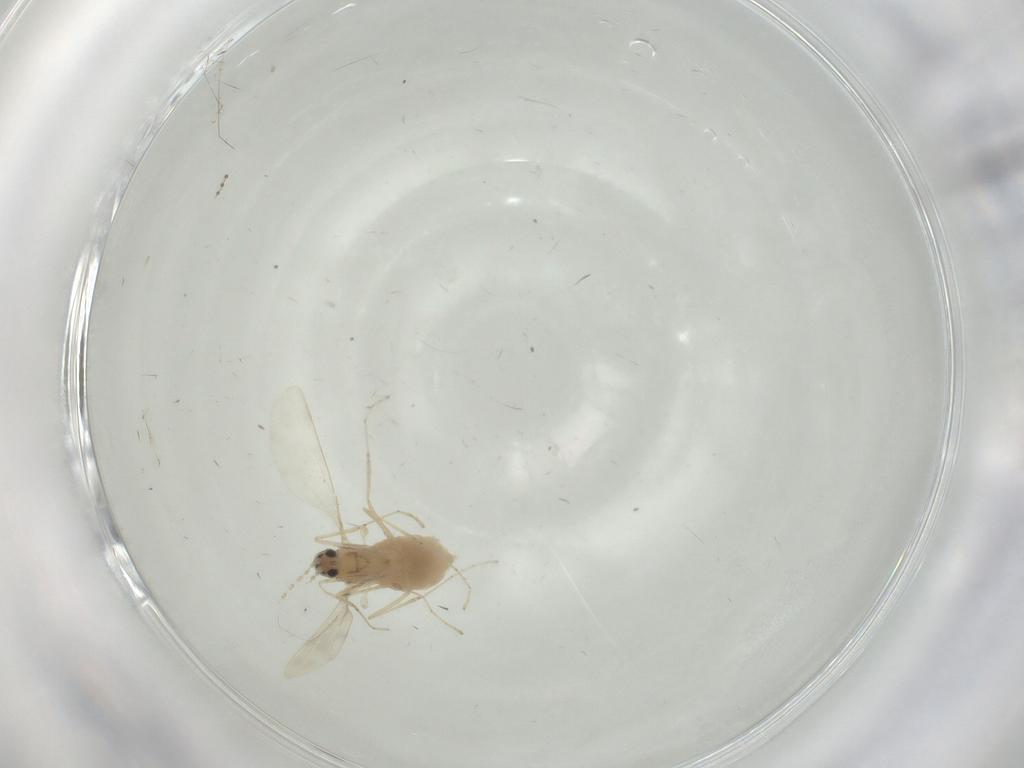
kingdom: Animalia
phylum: Arthropoda
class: Insecta
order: Diptera
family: Cecidomyiidae
